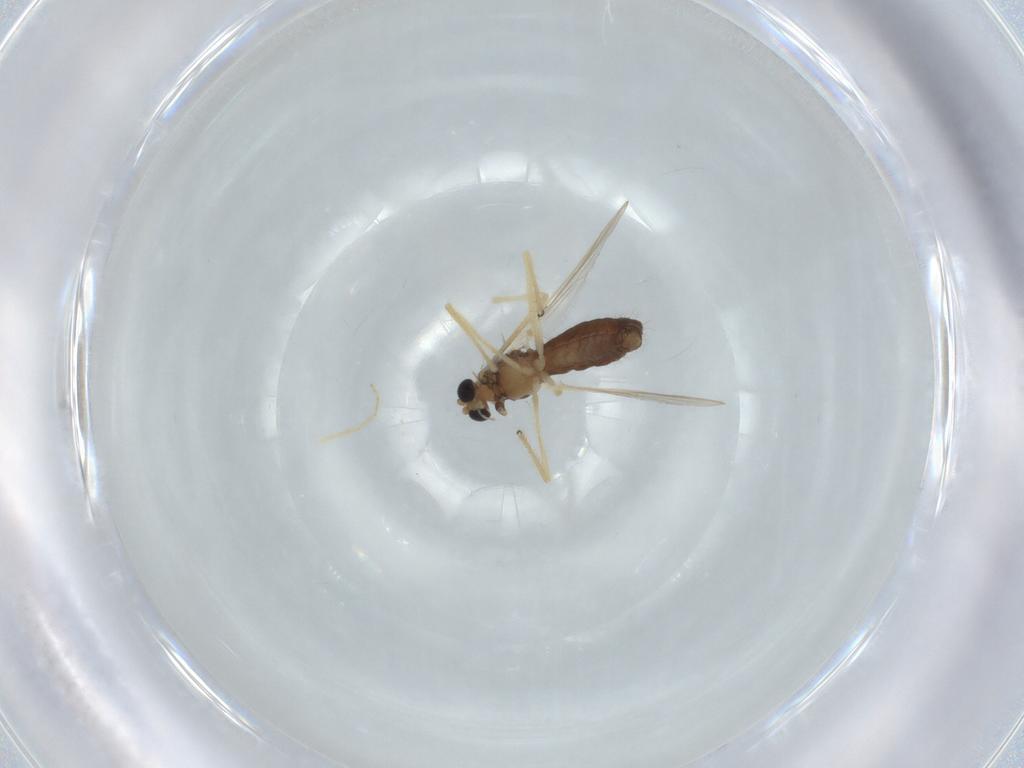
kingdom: Animalia
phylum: Arthropoda
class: Insecta
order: Diptera
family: Chironomidae
